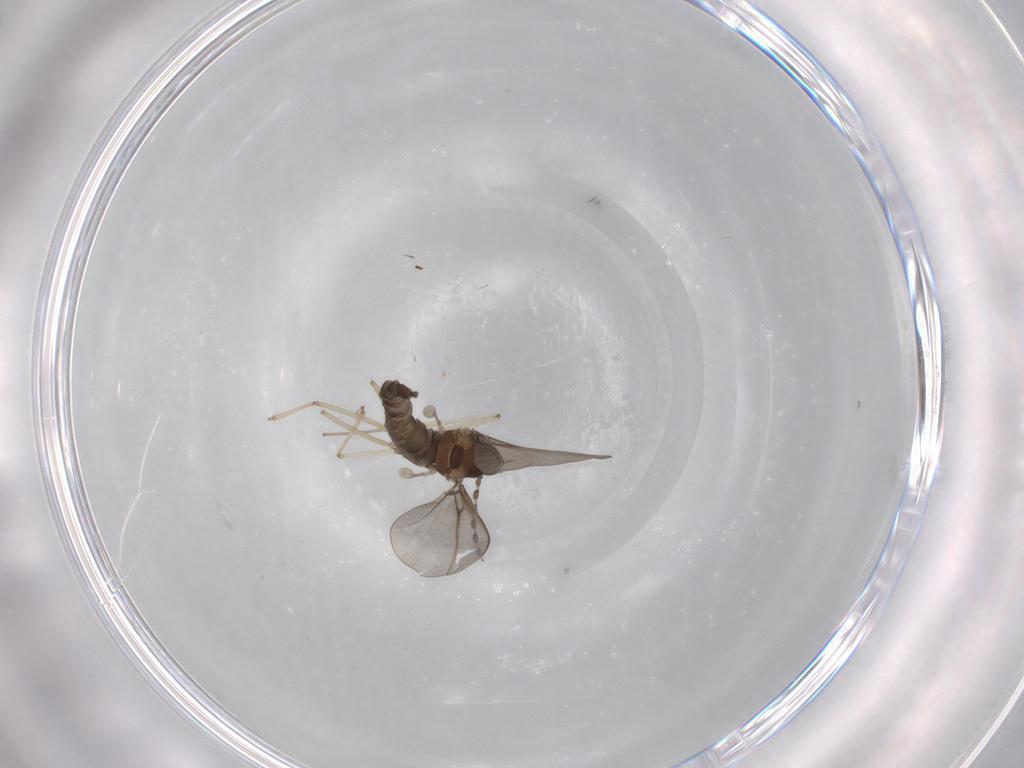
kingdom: Animalia
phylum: Arthropoda
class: Insecta
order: Diptera
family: Cecidomyiidae
